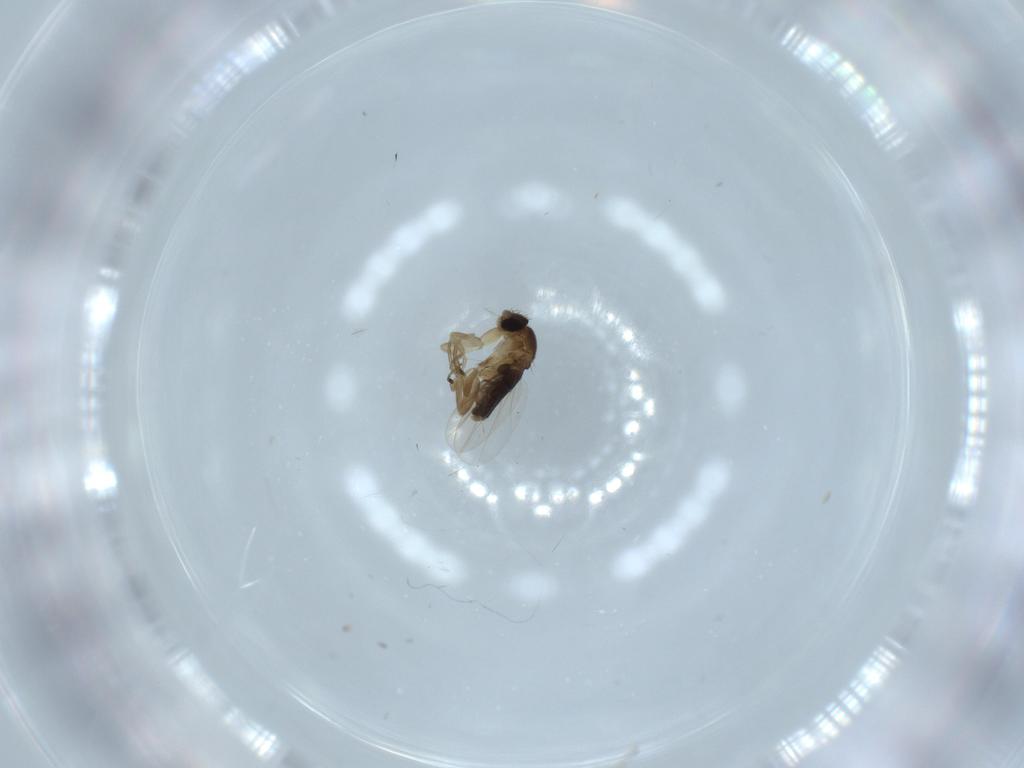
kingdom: Animalia
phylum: Arthropoda
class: Insecta
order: Diptera
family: Phoridae
